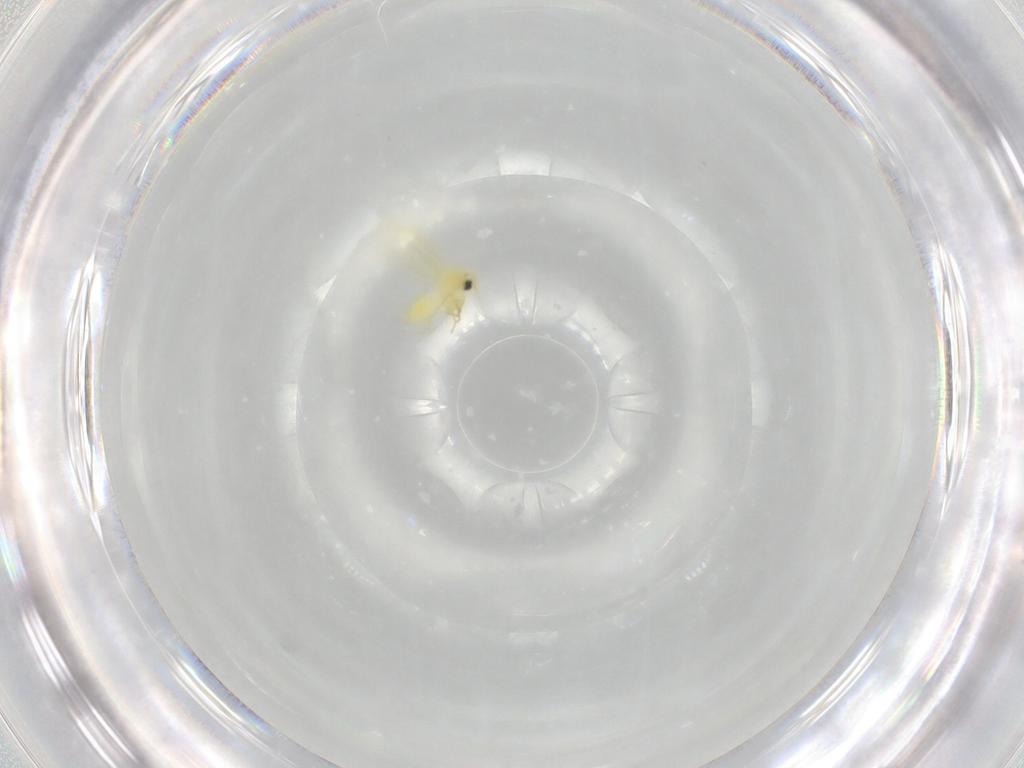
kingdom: Animalia
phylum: Arthropoda
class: Insecta
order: Hemiptera
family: Aleyrodidae
